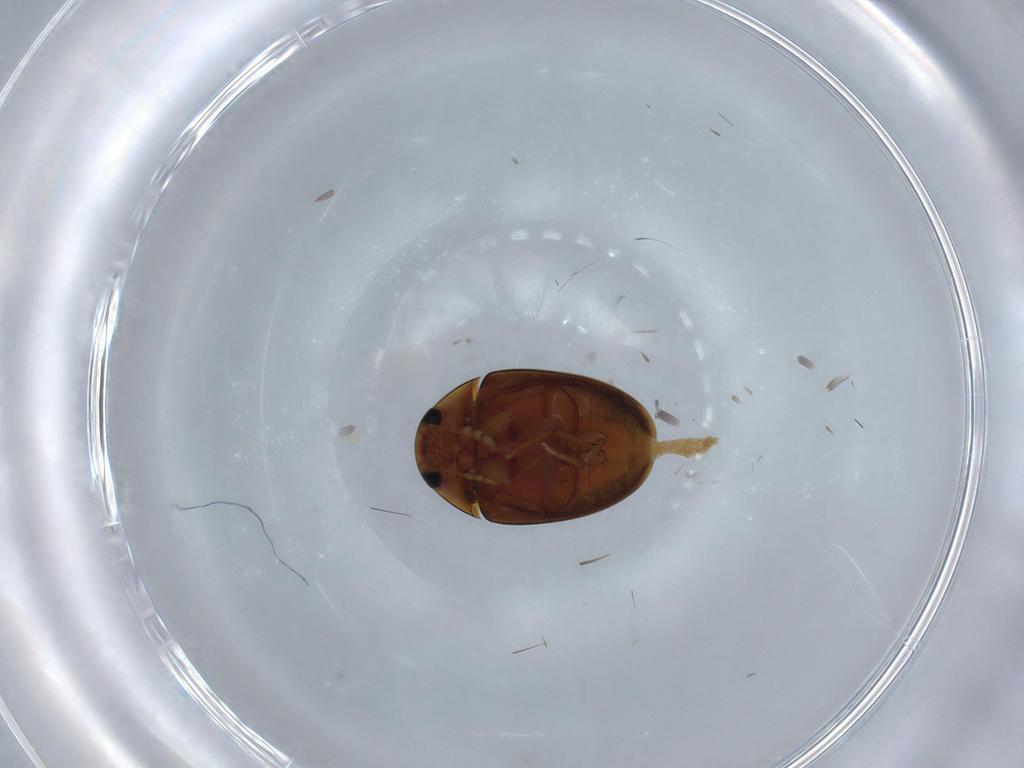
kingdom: Animalia
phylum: Arthropoda
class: Insecta
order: Coleoptera
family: Phalacridae
